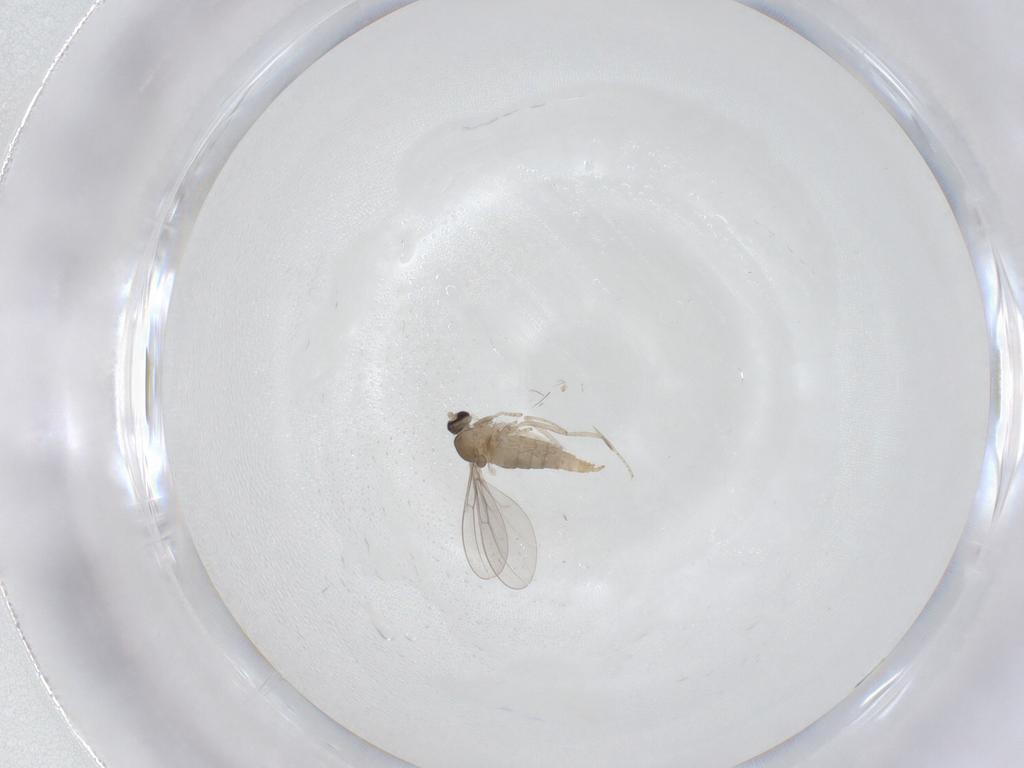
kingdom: Animalia
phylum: Arthropoda
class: Insecta
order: Diptera
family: Cecidomyiidae
